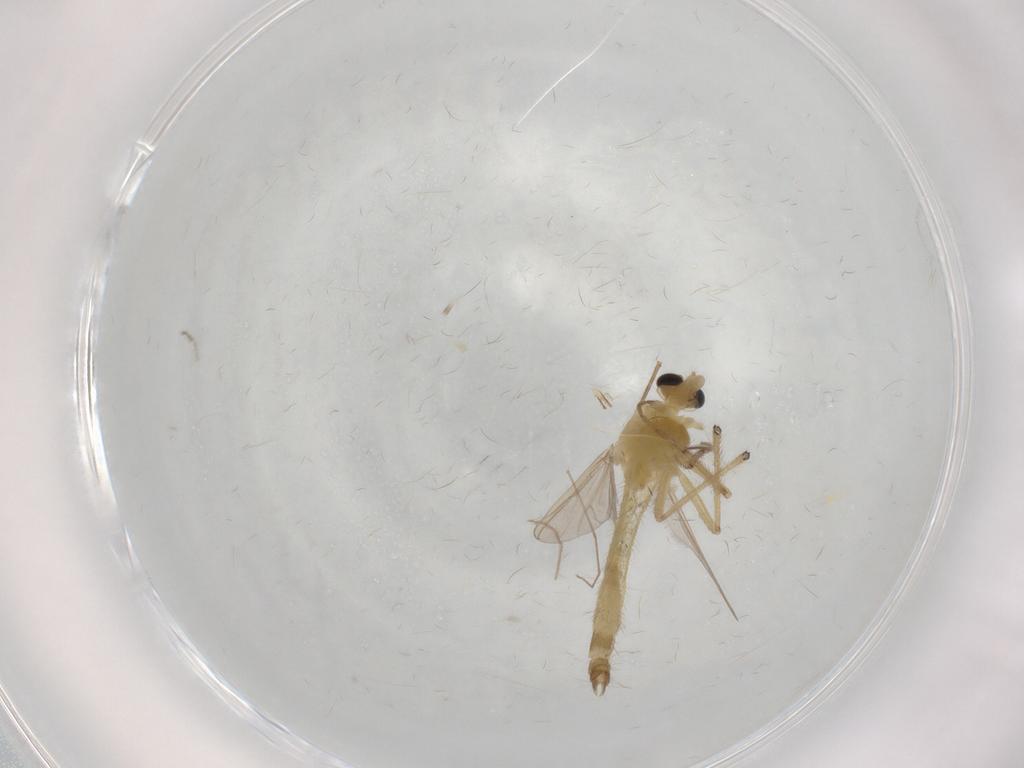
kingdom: Animalia
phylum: Arthropoda
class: Insecta
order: Diptera
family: Chironomidae
